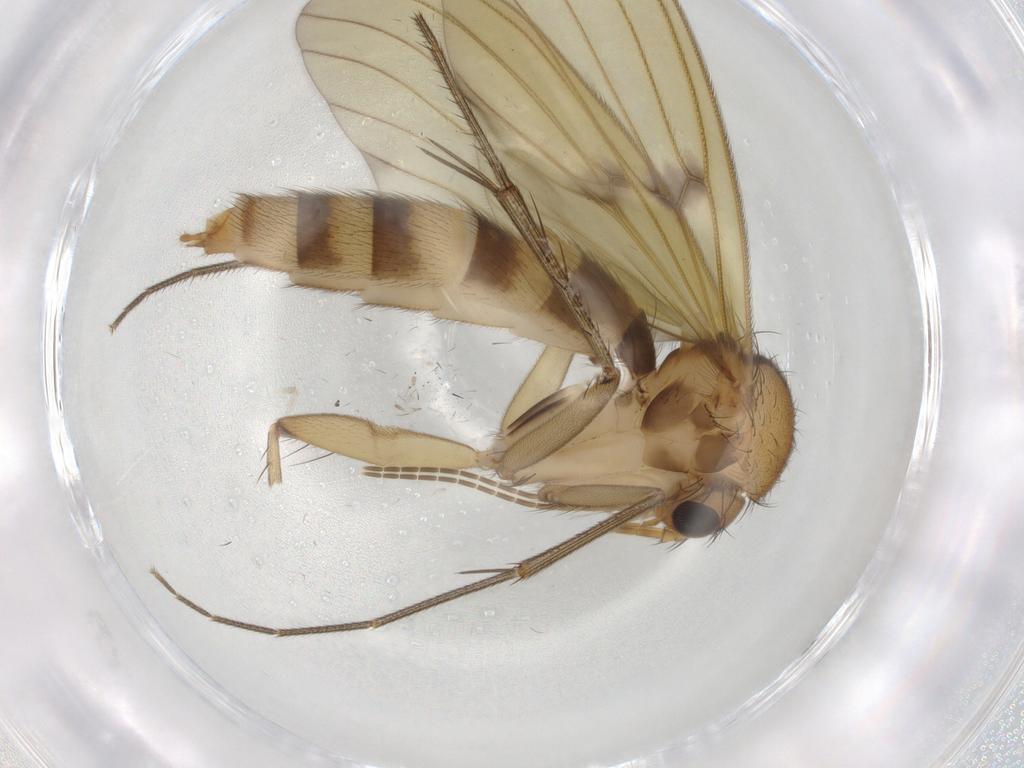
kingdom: Animalia
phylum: Arthropoda
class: Insecta
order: Diptera
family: Mycetophilidae
